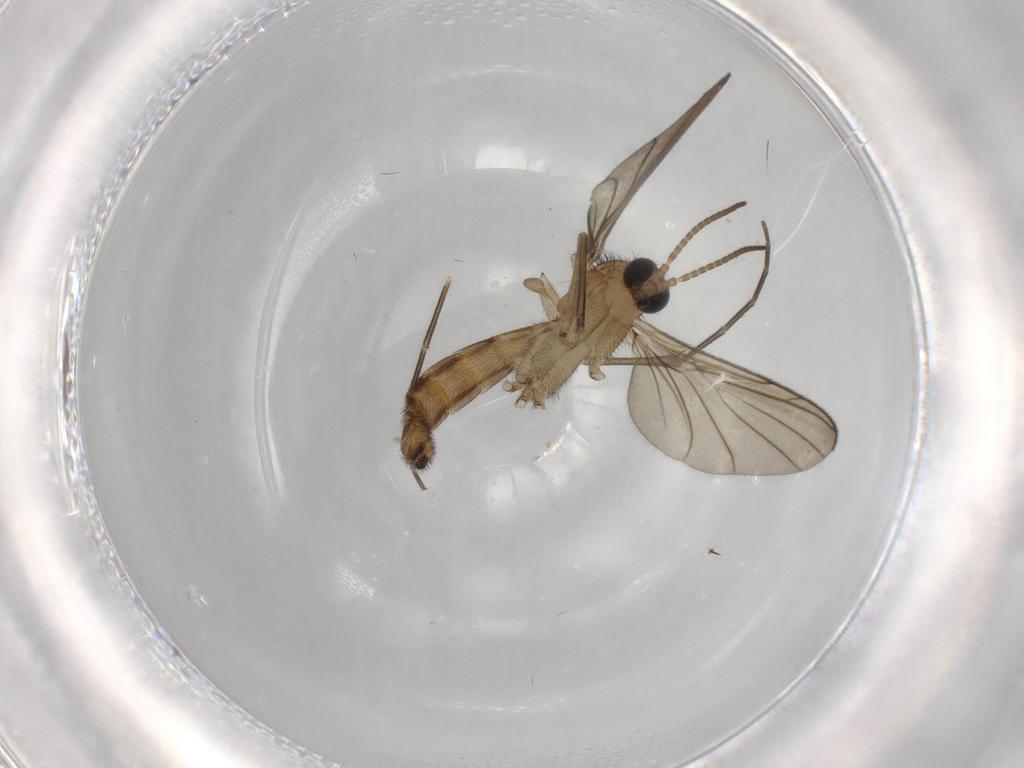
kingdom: Animalia
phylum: Arthropoda
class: Insecta
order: Diptera
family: Keroplatidae
